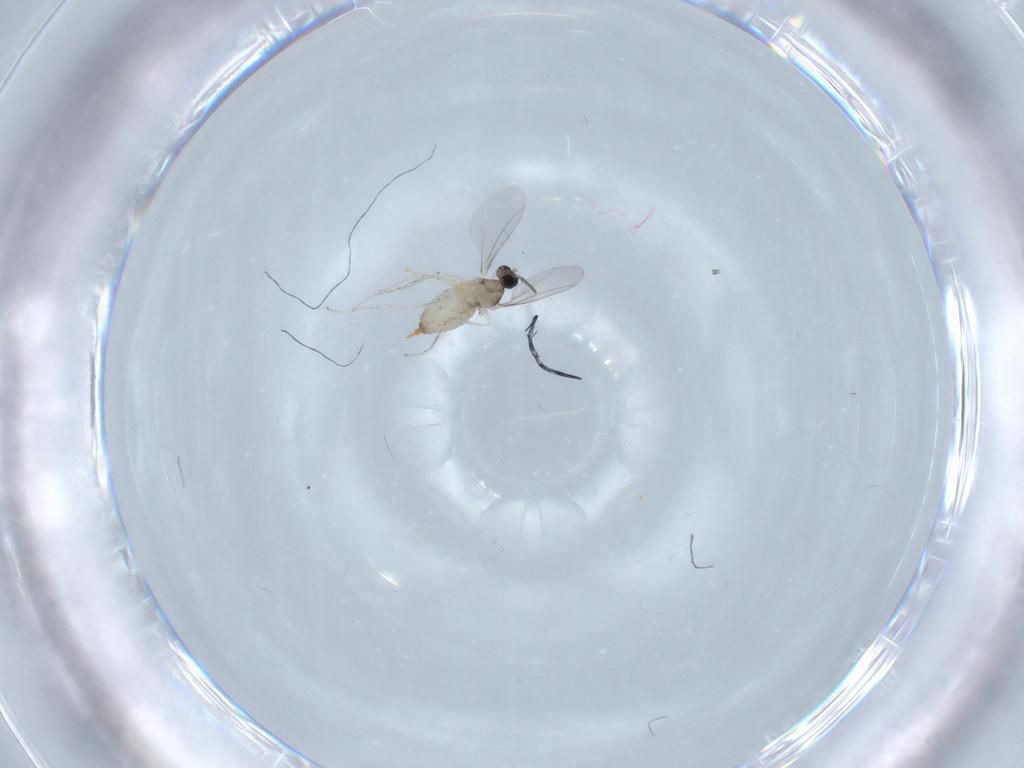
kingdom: Animalia
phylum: Arthropoda
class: Insecta
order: Diptera
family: Cecidomyiidae
